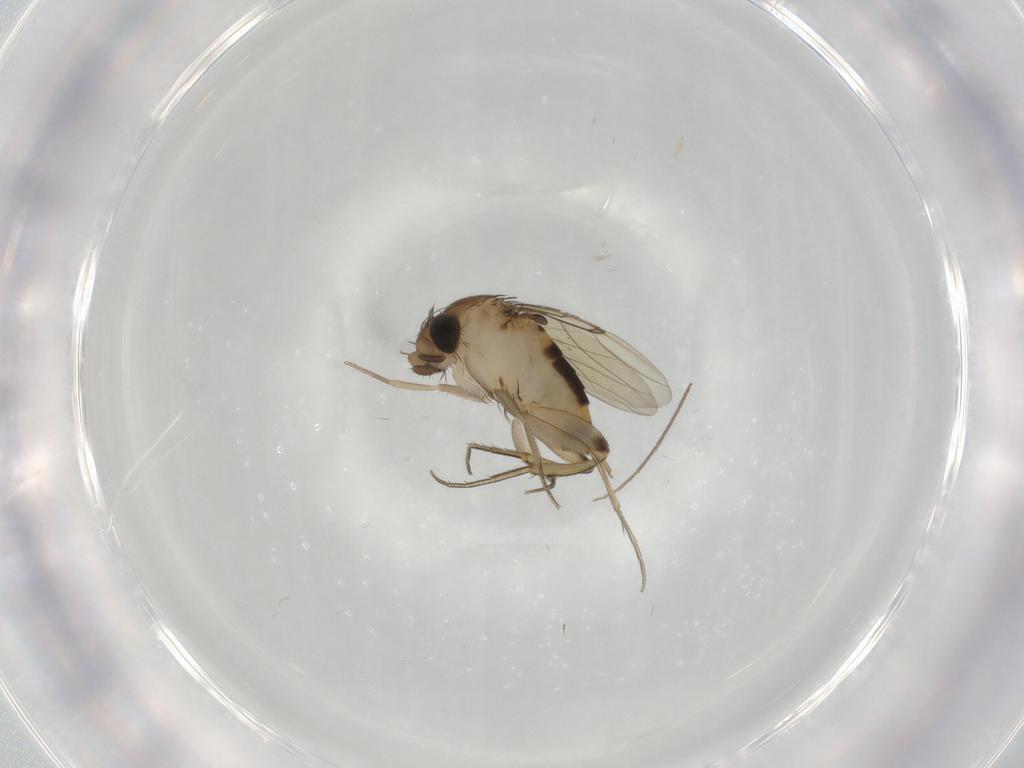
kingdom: Animalia
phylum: Arthropoda
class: Insecta
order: Diptera
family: Phoridae
